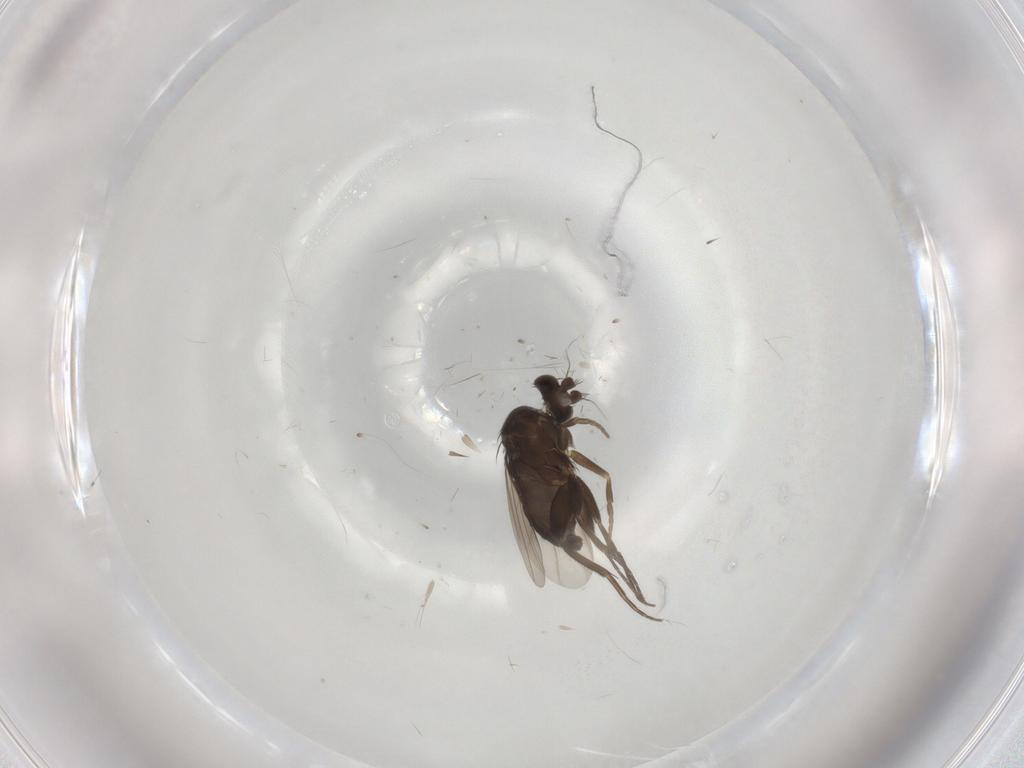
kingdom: Animalia
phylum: Arthropoda
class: Insecta
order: Diptera
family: Phoridae
